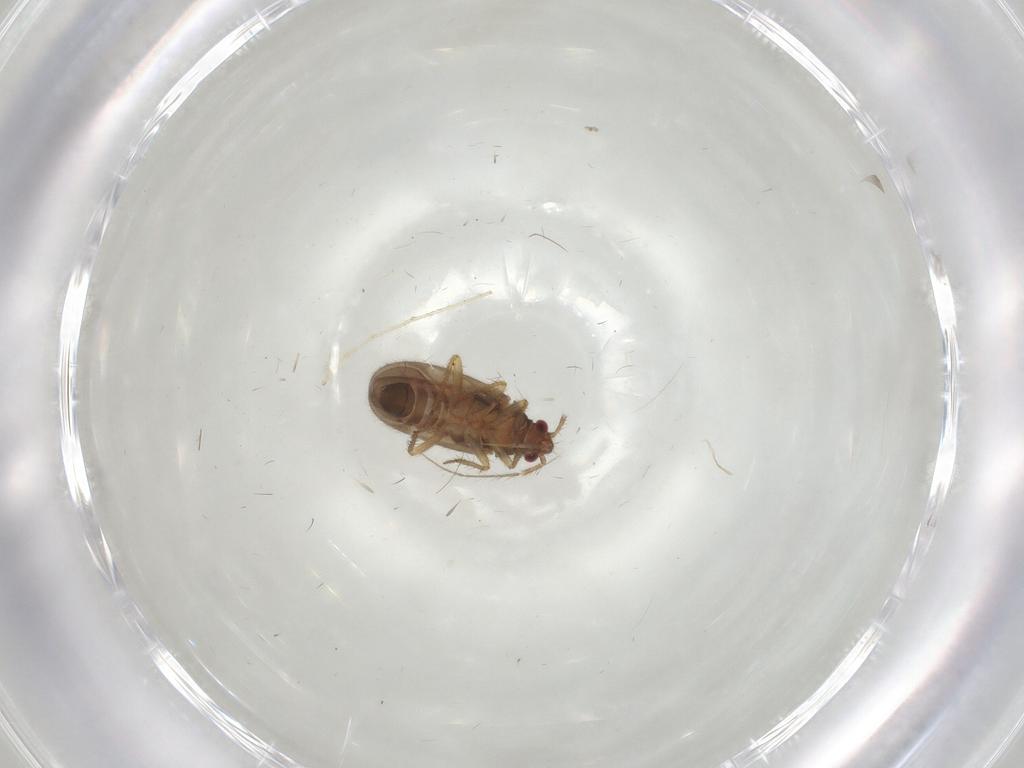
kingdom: Animalia
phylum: Arthropoda
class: Insecta
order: Hemiptera
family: Ceratocombidae
